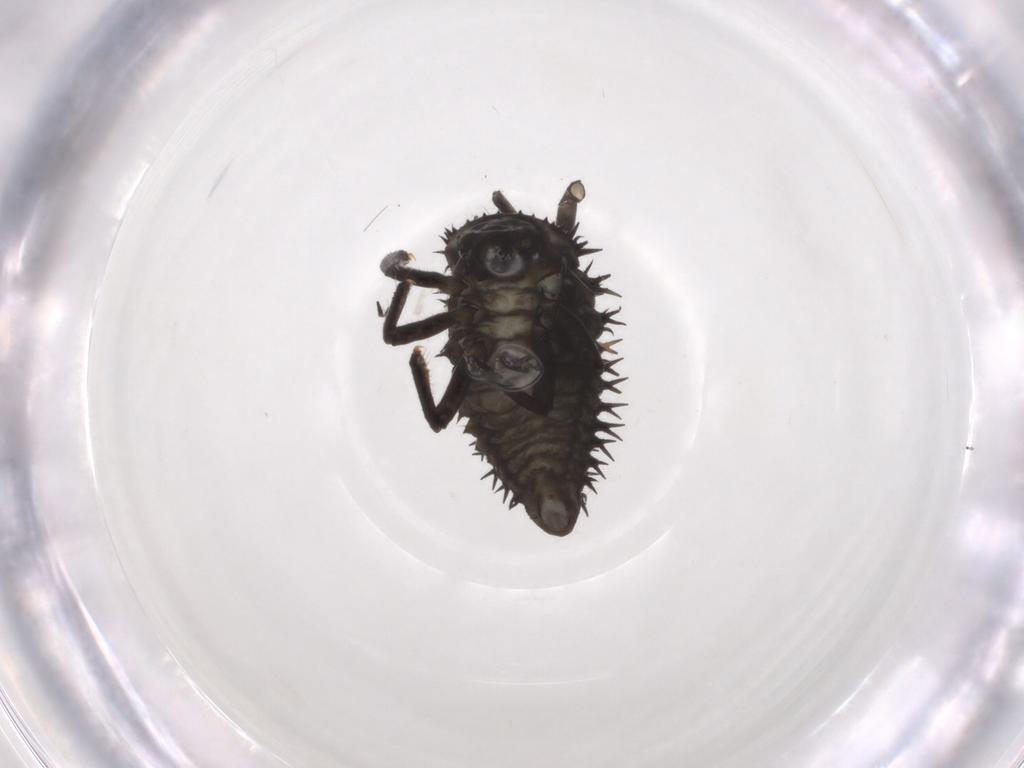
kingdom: Animalia
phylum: Arthropoda
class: Insecta
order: Coleoptera
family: Coccinellidae
